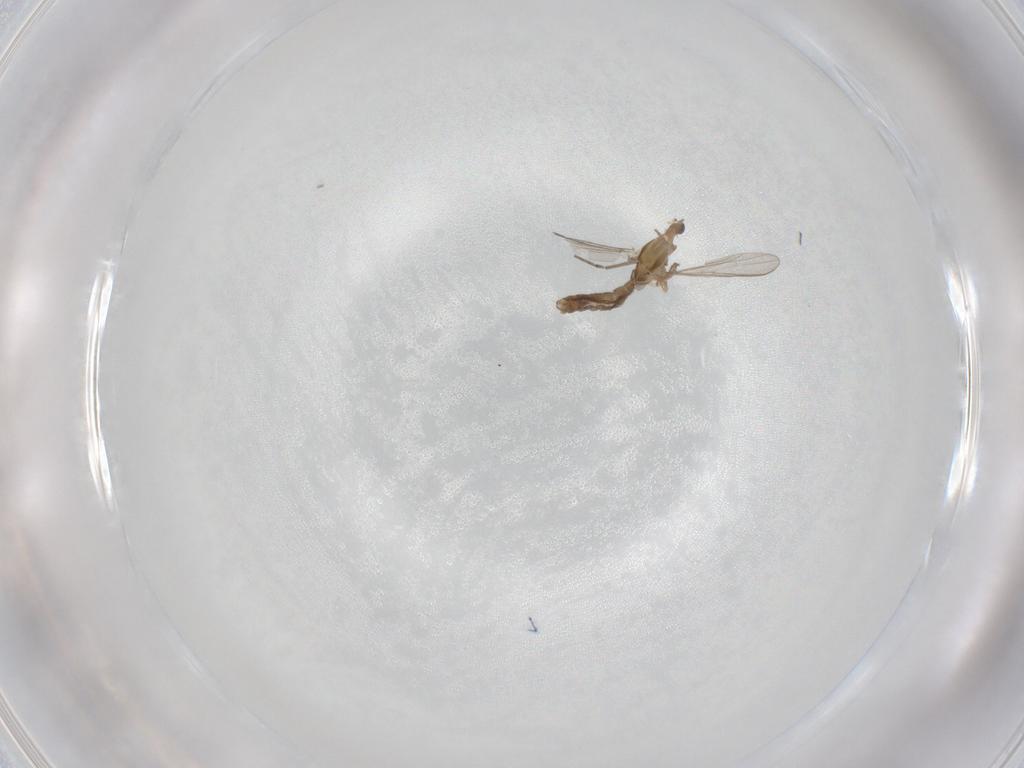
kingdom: Animalia
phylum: Arthropoda
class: Insecta
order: Diptera
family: Chironomidae
